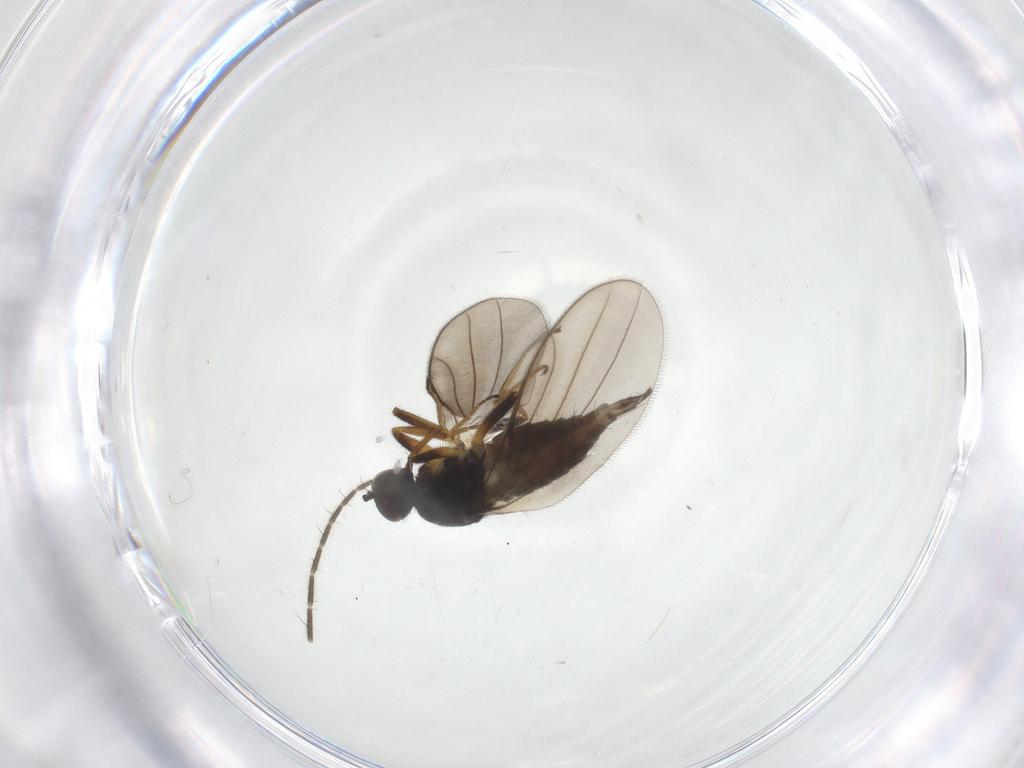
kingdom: Animalia
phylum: Arthropoda
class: Insecta
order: Diptera
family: Hybotidae
